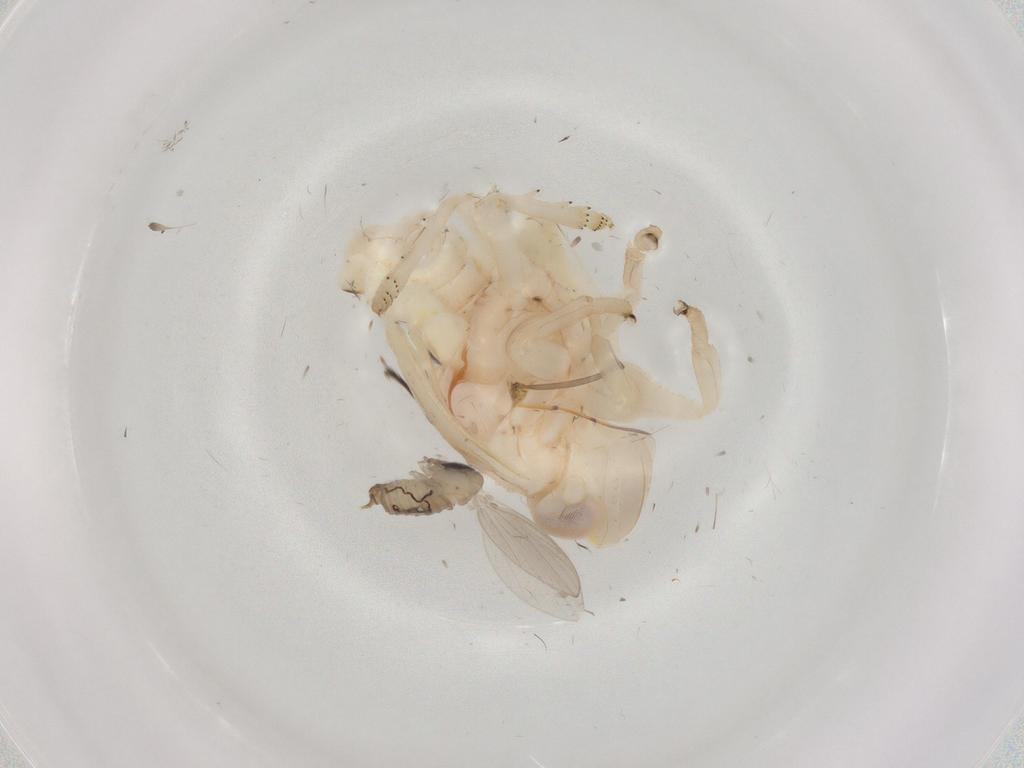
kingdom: Animalia
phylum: Arthropoda
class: Insecta
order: Diptera
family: Psychodidae
